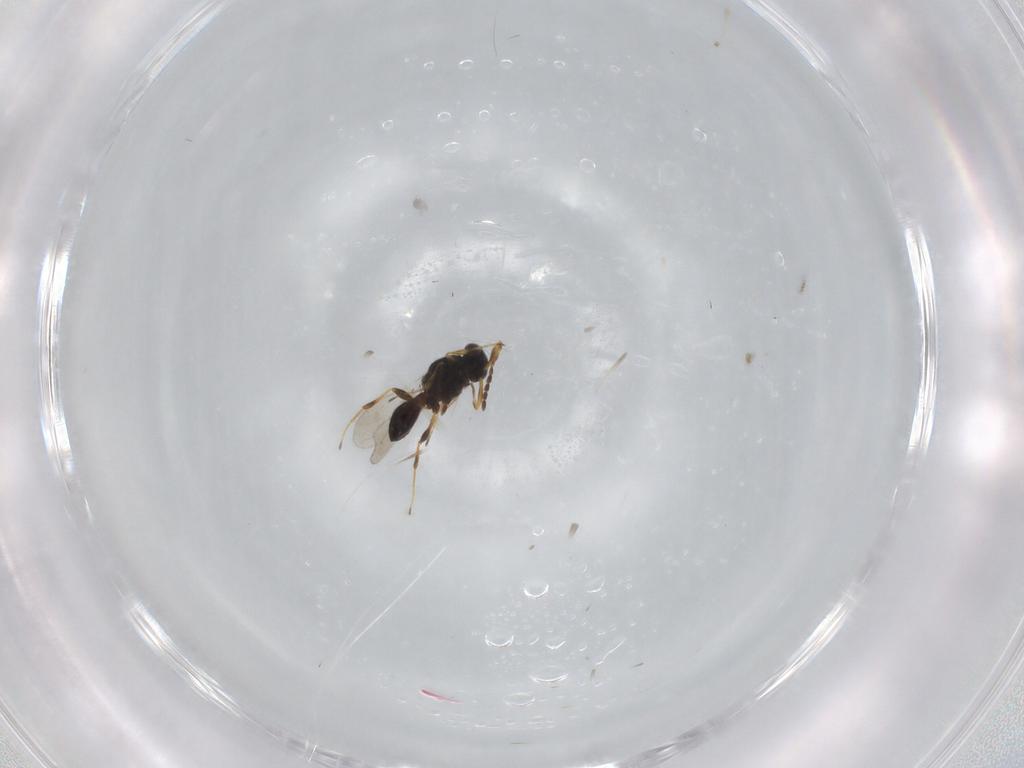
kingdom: Animalia
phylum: Arthropoda
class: Insecta
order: Hymenoptera
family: Platygastridae
